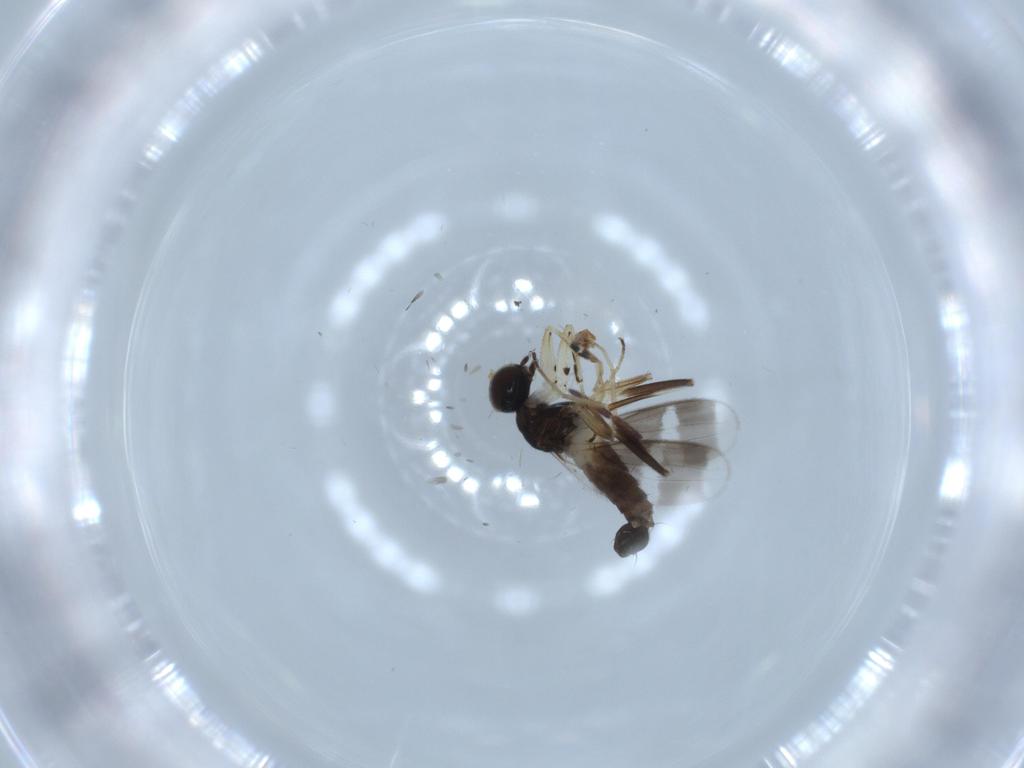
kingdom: Animalia
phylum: Arthropoda
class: Insecta
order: Diptera
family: Hybotidae
